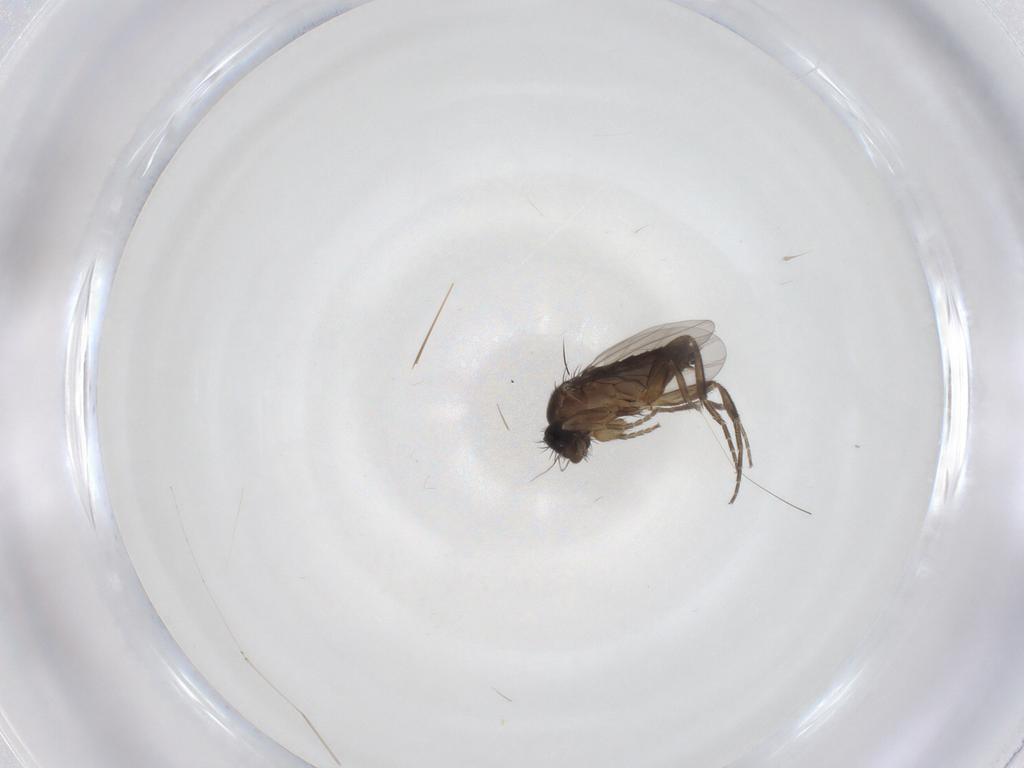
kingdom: Animalia
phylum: Arthropoda
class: Insecta
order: Diptera
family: Phoridae
